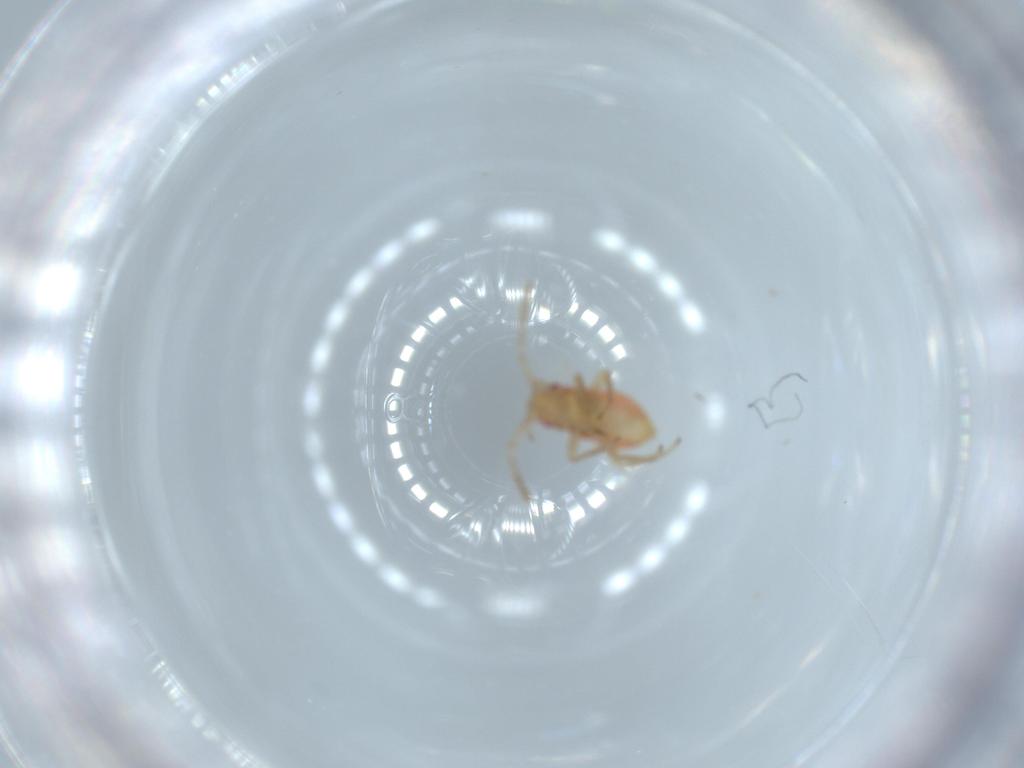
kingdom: Animalia
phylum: Arthropoda
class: Insecta
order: Hemiptera
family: Miridae
